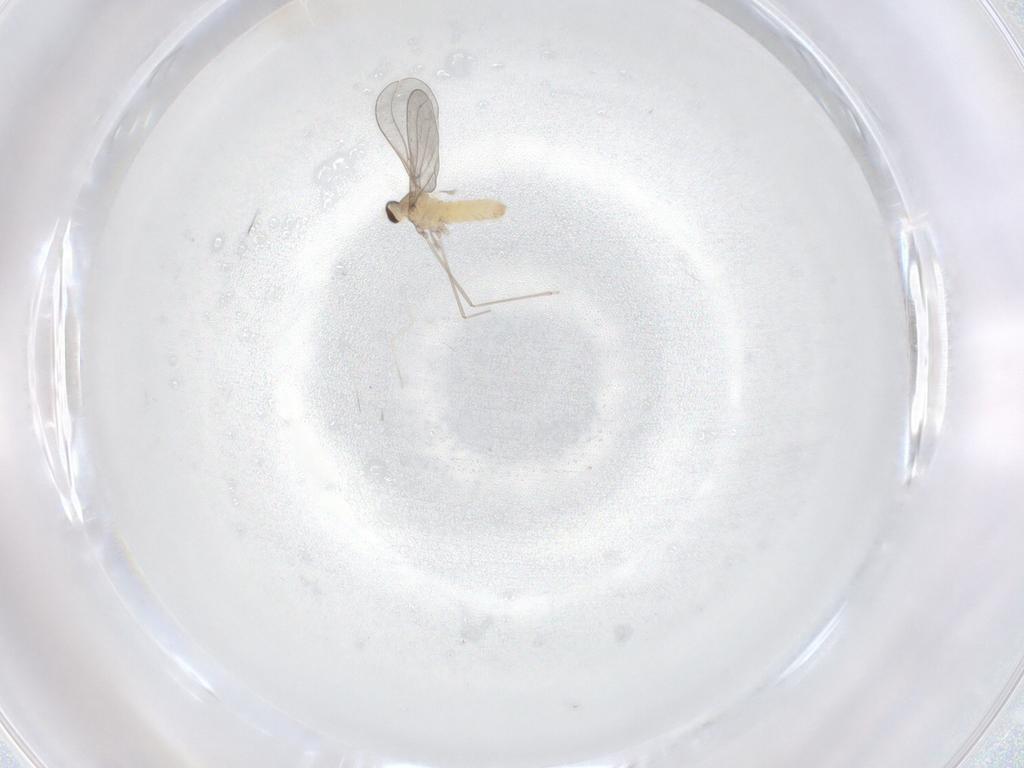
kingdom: Animalia
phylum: Arthropoda
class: Insecta
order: Diptera
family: Cecidomyiidae
